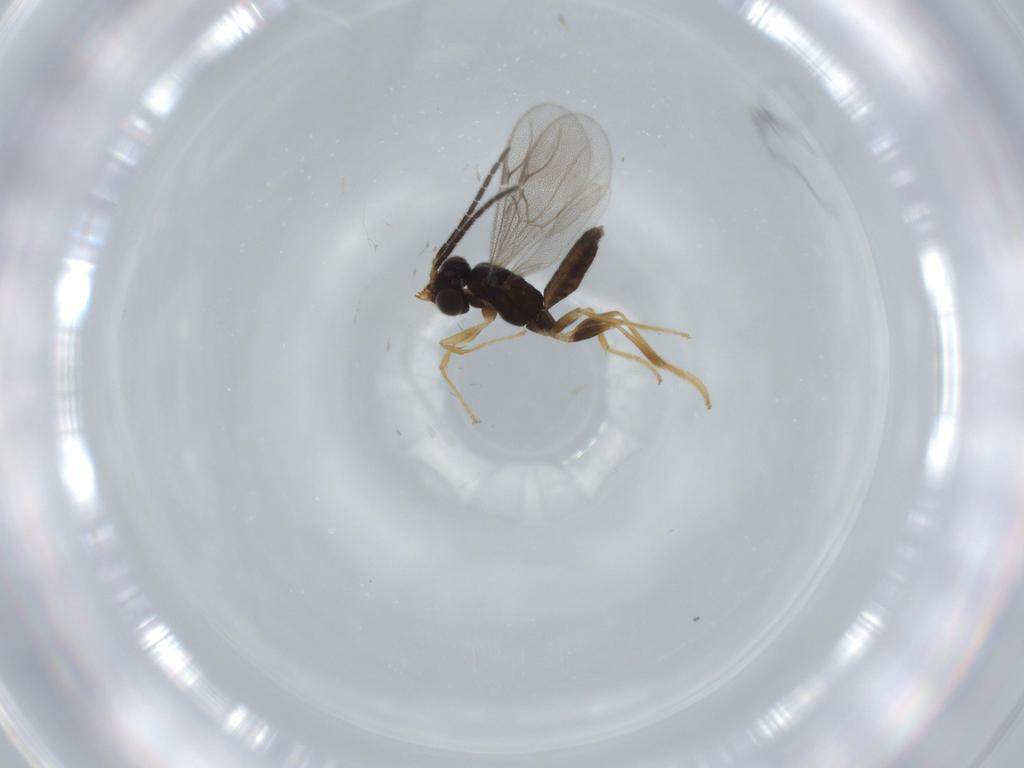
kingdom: Animalia
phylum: Arthropoda
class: Insecta
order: Hymenoptera
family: Dryinidae
